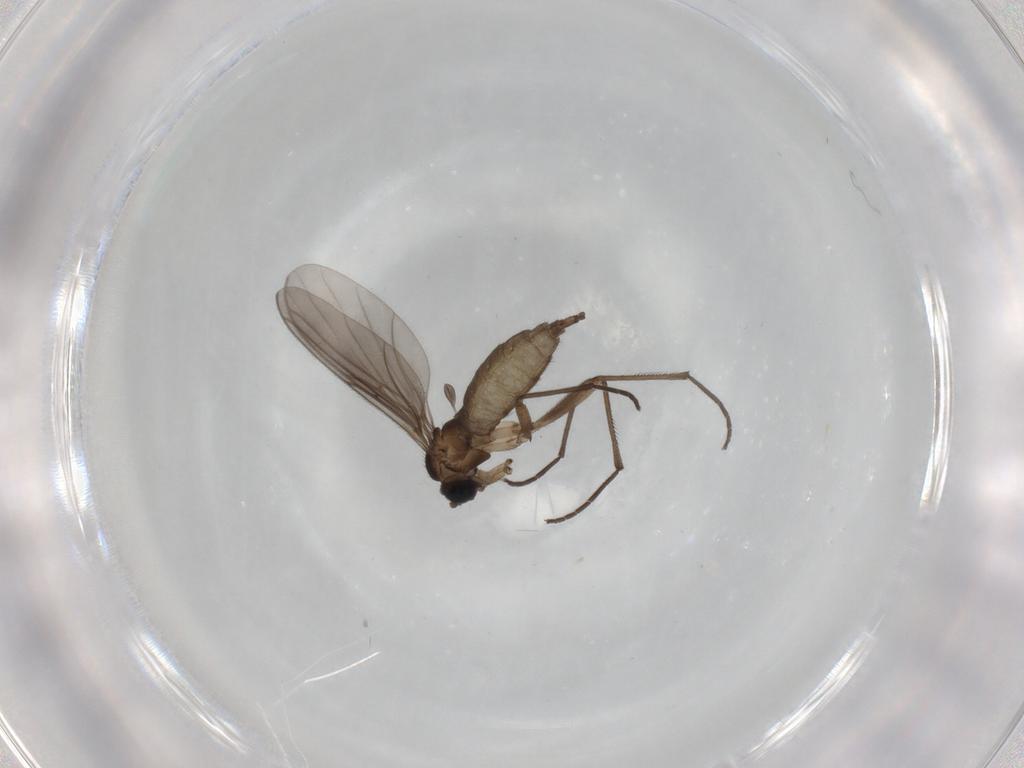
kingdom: Animalia
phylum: Arthropoda
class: Insecta
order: Diptera
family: Sciaridae
